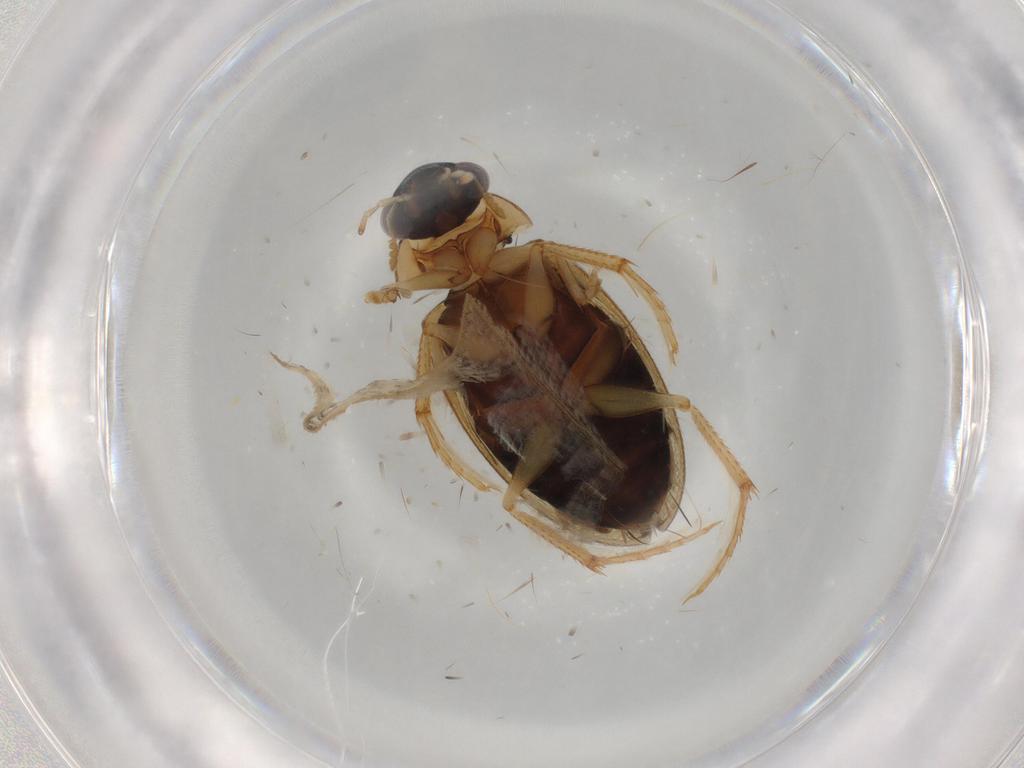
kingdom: Animalia
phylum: Arthropoda
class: Insecta
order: Coleoptera
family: Hydrophilidae
